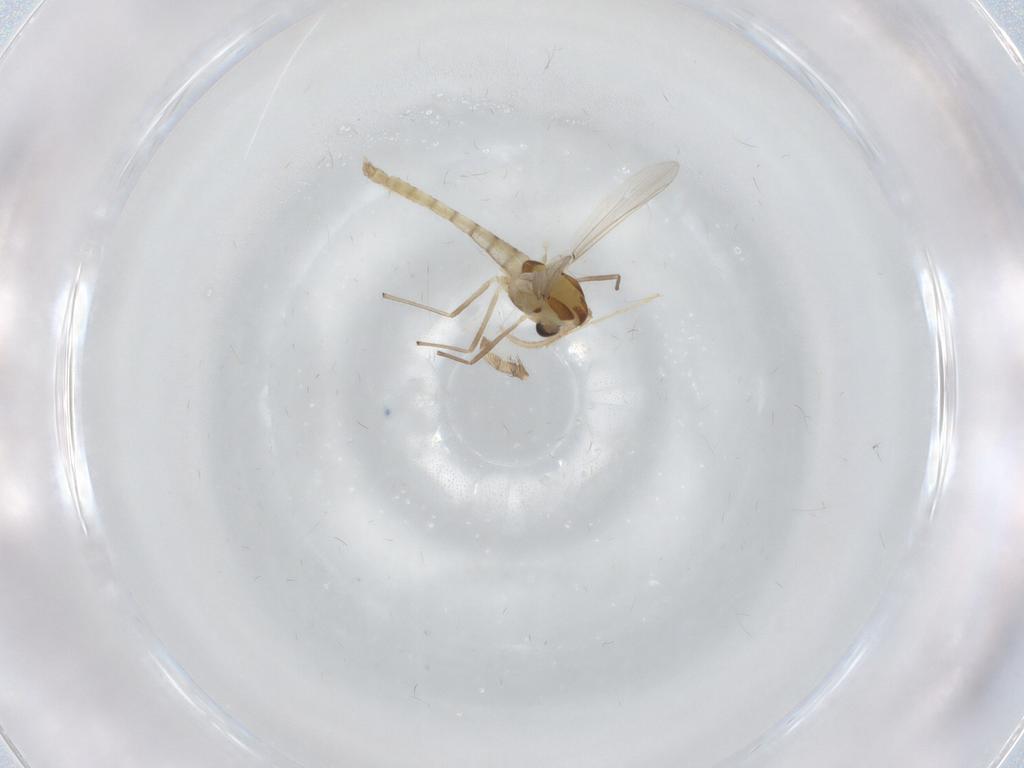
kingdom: Animalia
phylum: Arthropoda
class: Insecta
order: Diptera
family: Chironomidae
